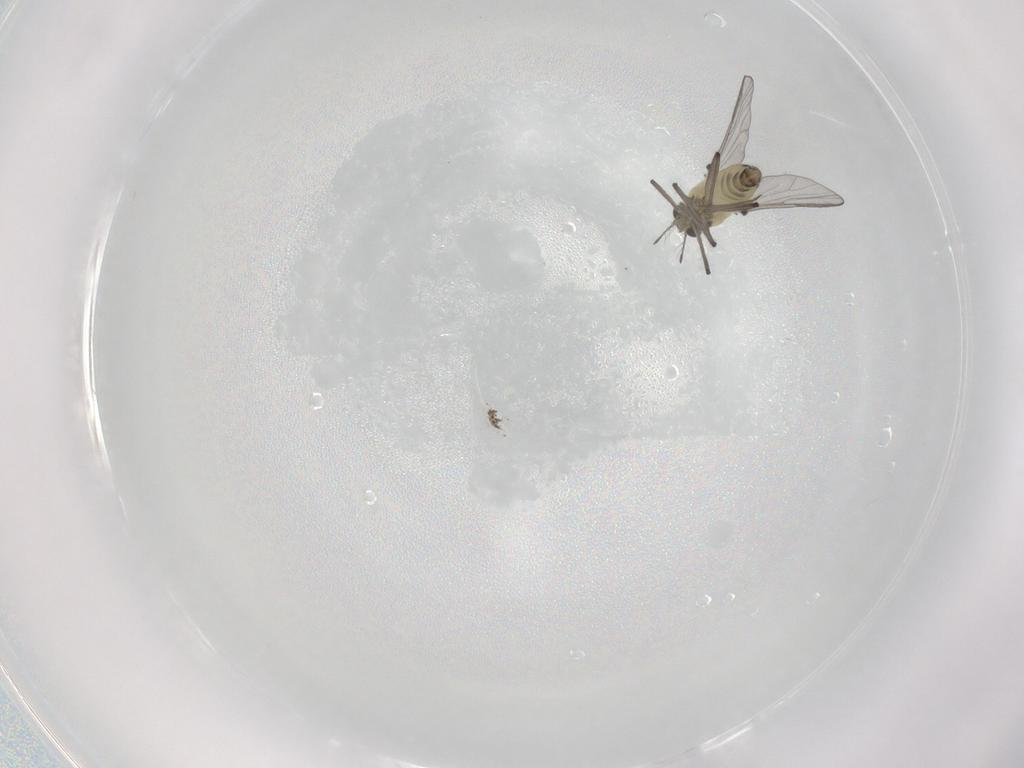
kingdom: Animalia
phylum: Arthropoda
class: Insecta
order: Diptera
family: Chironomidae
